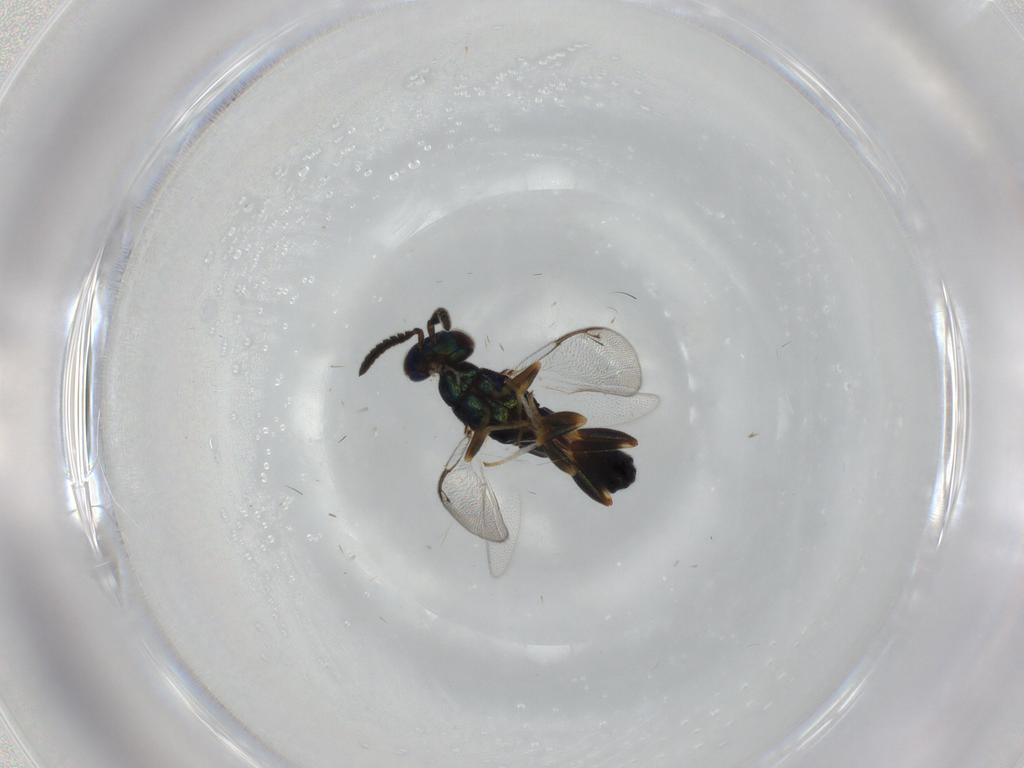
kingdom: Animalia
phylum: Arthropoda
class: Insecta
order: Hymenoptera
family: Cleonyminae
